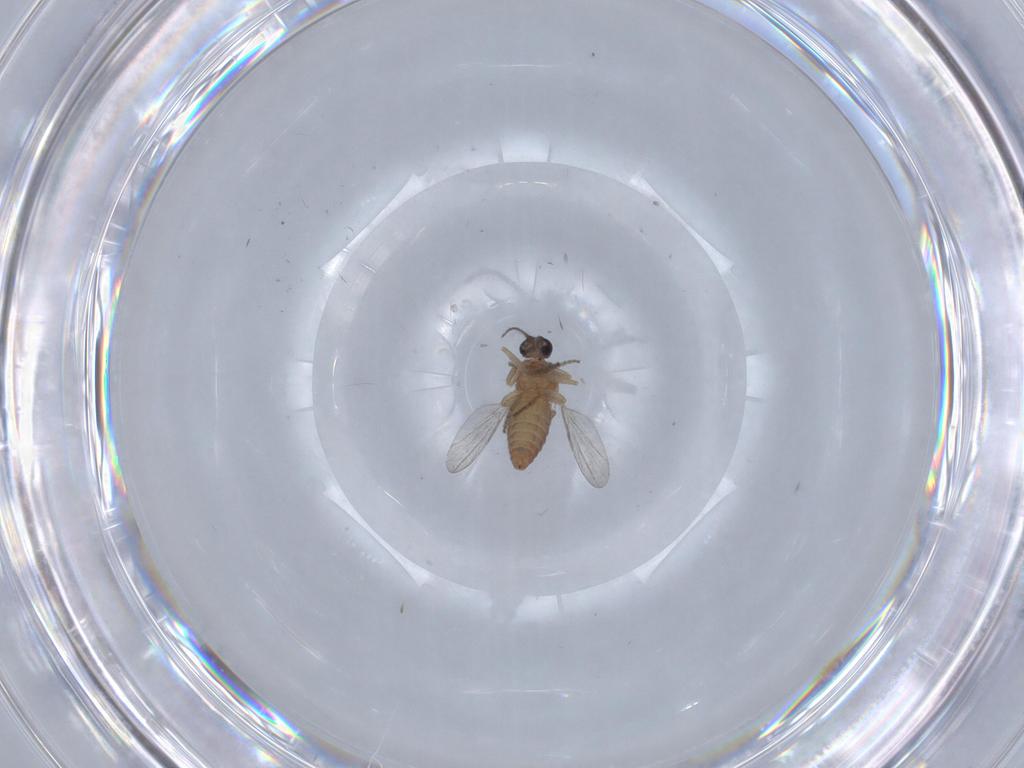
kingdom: Animalia
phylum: Arthropoda
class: Insecta
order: Diptera
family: Ceratopogonidae
